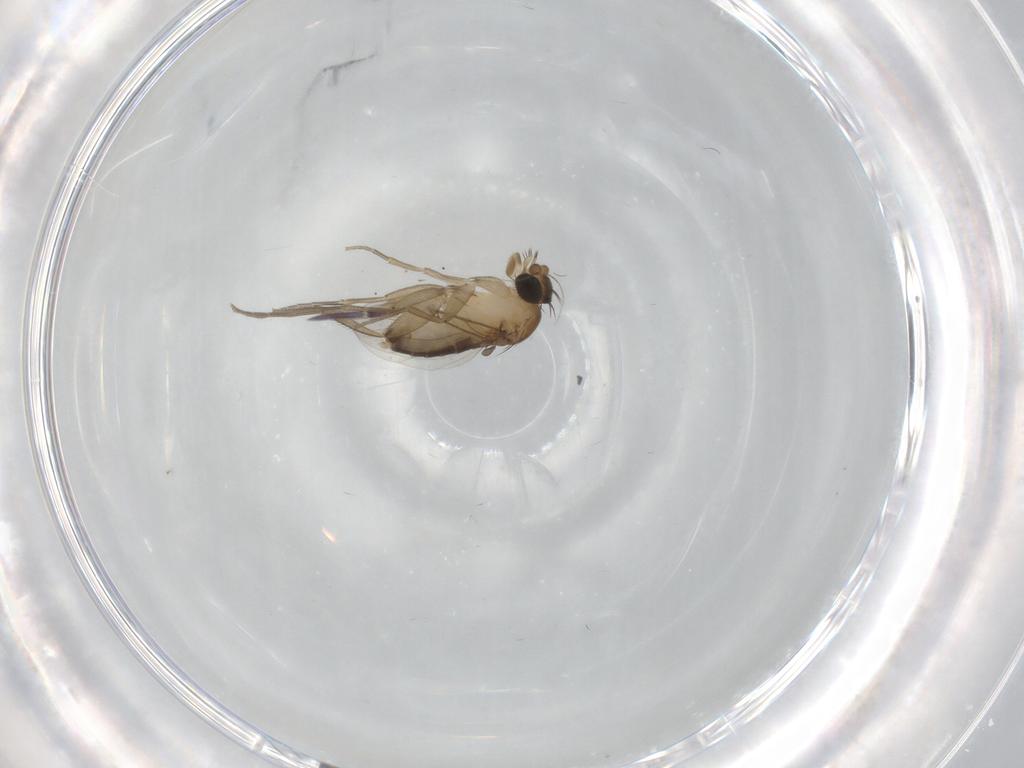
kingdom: Animalia
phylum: Arthropoda
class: Insecta
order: Diptera
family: Phoridae
